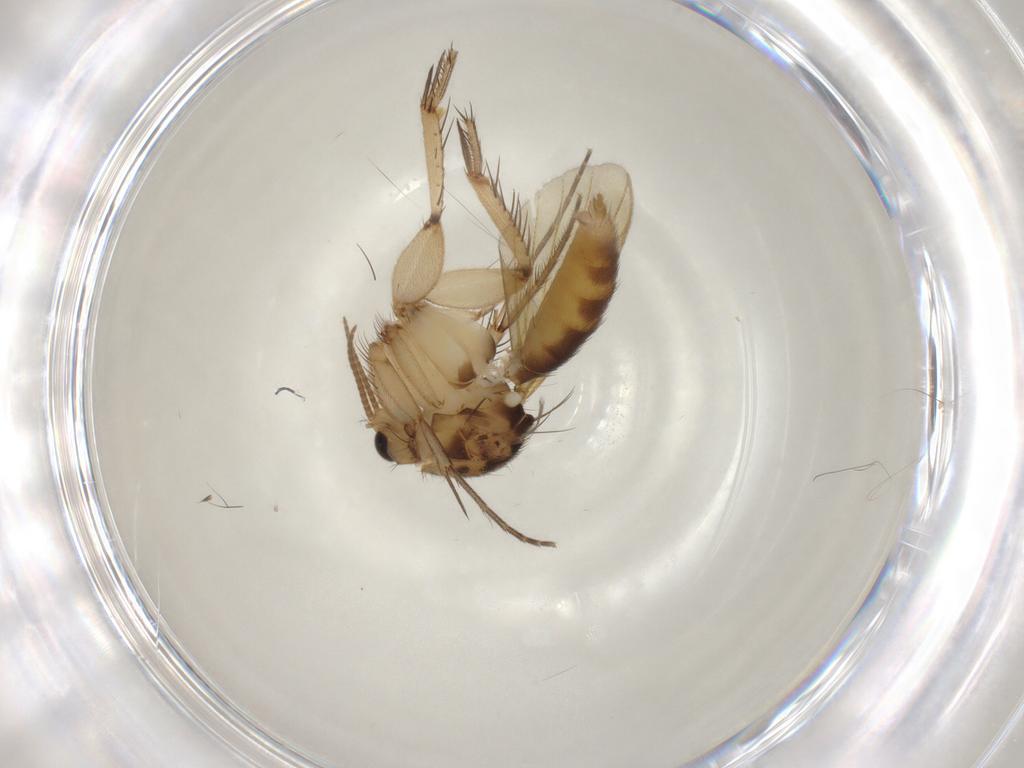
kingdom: Animalia
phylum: Arthropoda
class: Insecta
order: Diptera
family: Mycetophilidae
